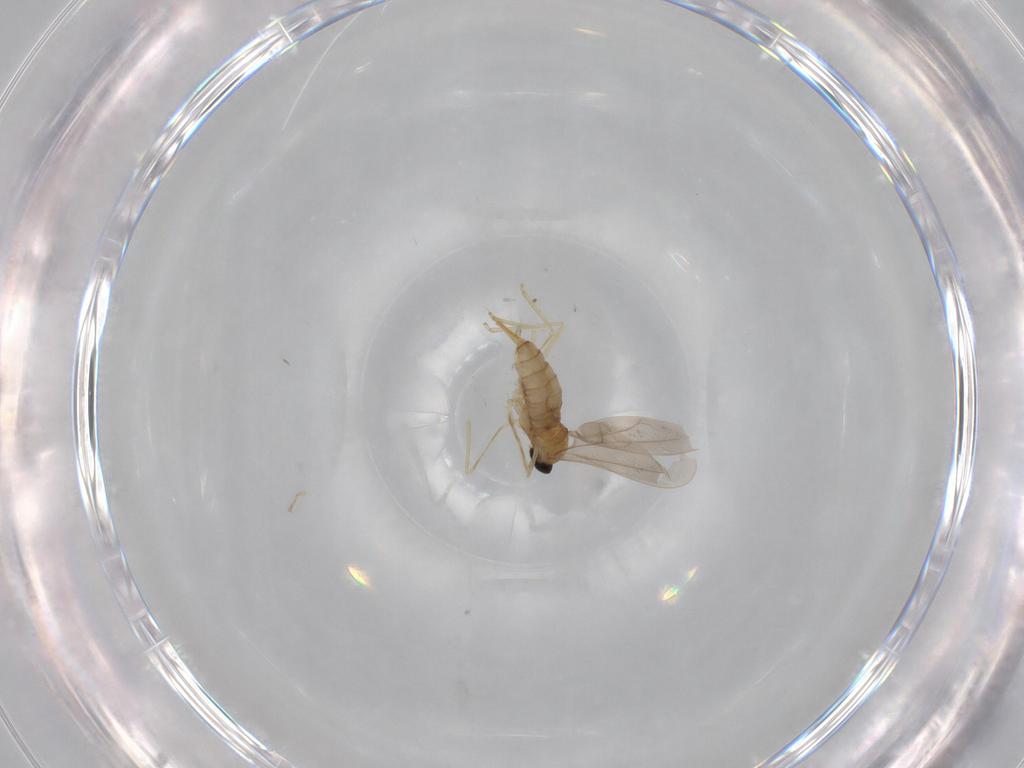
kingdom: Animalia
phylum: Arthropoda
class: Insecta
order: Diptera
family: Cecidomyiidae
